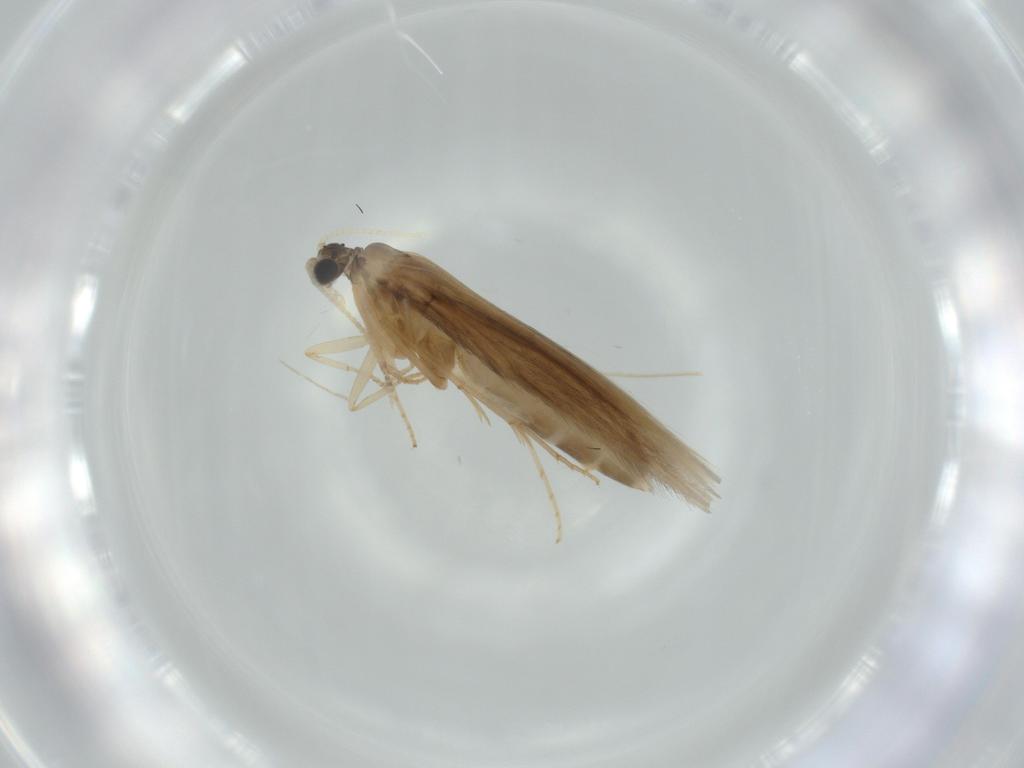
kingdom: Animalia
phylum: Arthropoda
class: Insecta
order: Trichoptera
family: Hydroptilidae
